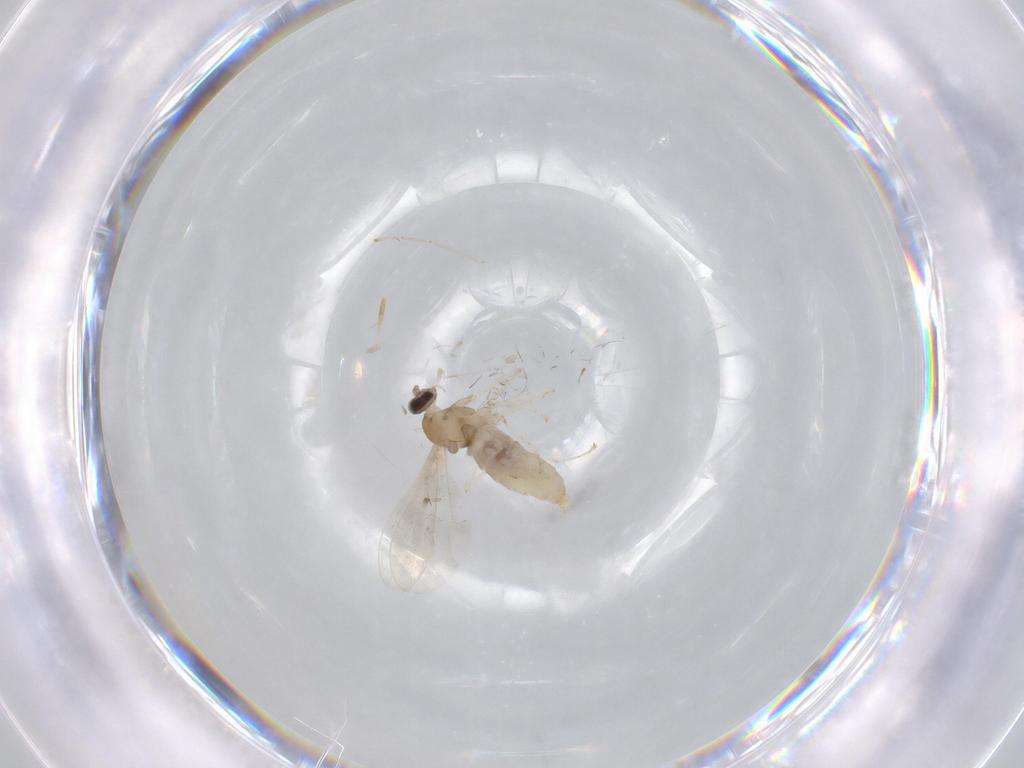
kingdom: Animalia
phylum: Arthropoda
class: Insecta
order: Diptera
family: Cecidomyiidae
